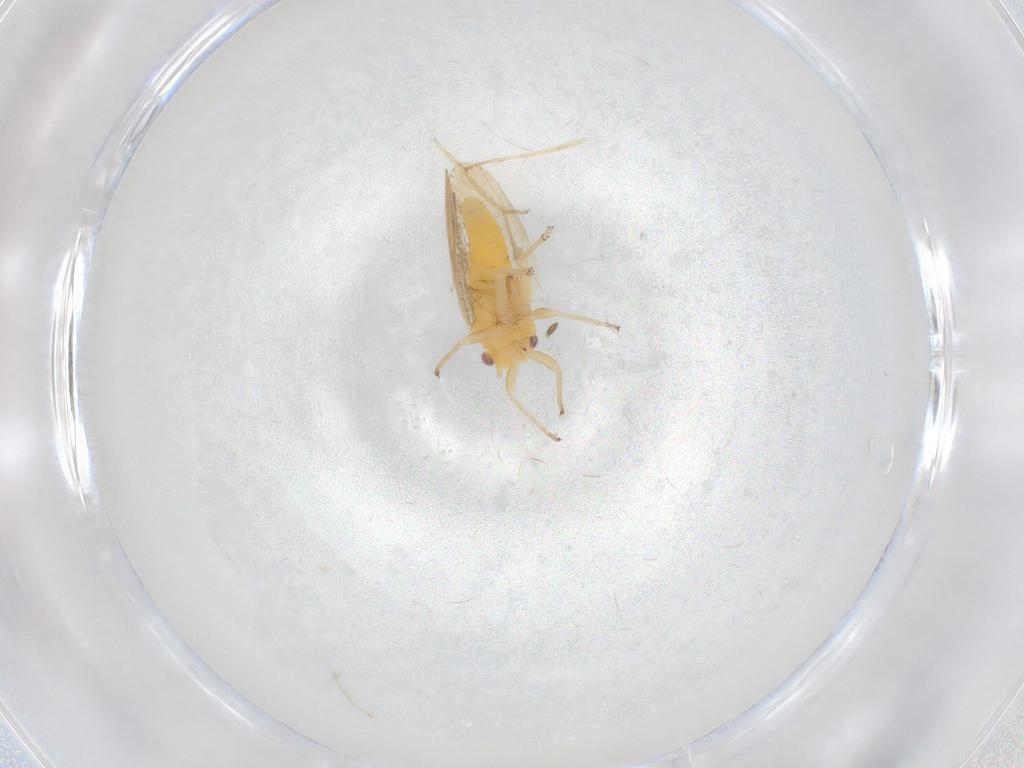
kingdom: Animalia
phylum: Arthropoda
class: Insecta
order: Hemiptera
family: Psyllidae
